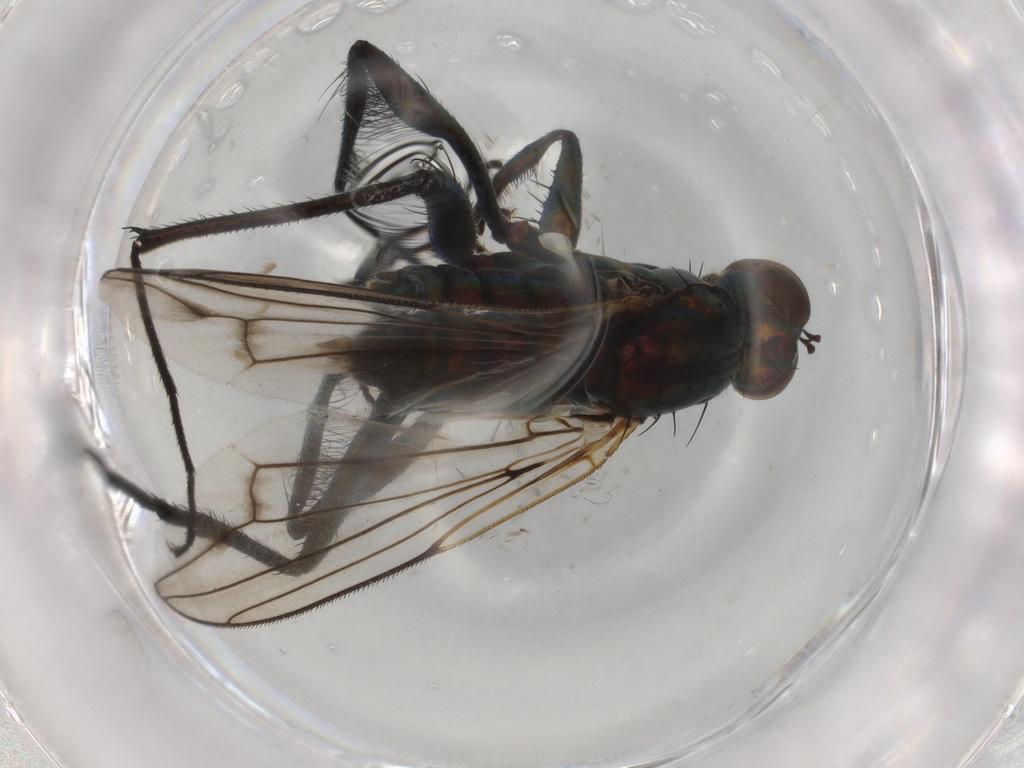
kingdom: Animalia
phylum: Arthropoda
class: Insecta
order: Diptera
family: Dolichopodidae
